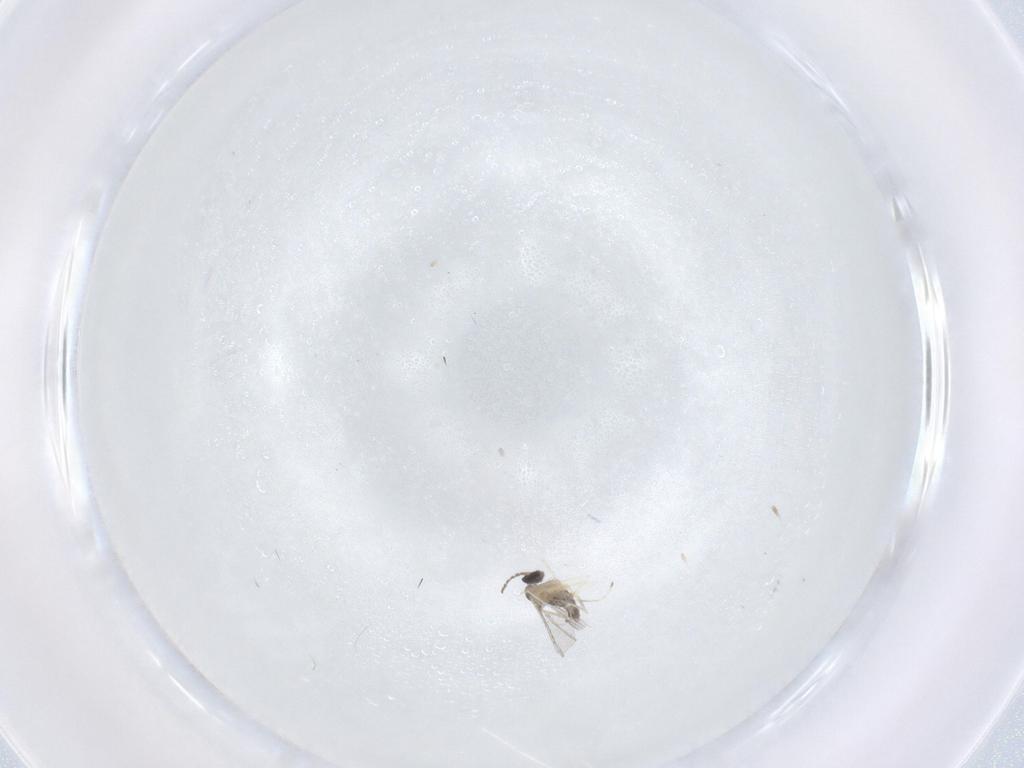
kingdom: Animalia
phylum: Arthropoda
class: Insecta
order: Diptera
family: Cecidomyiidae
